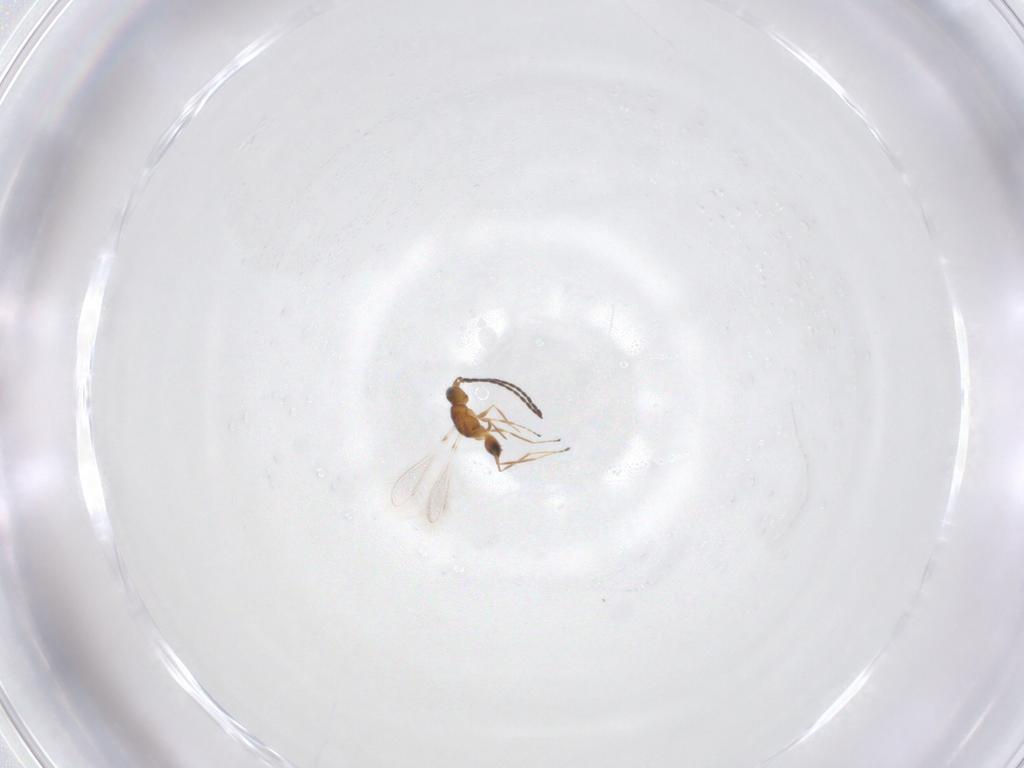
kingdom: Animalia
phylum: Arthropoda
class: Insecta
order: Hymenoptera
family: Mymaridae
